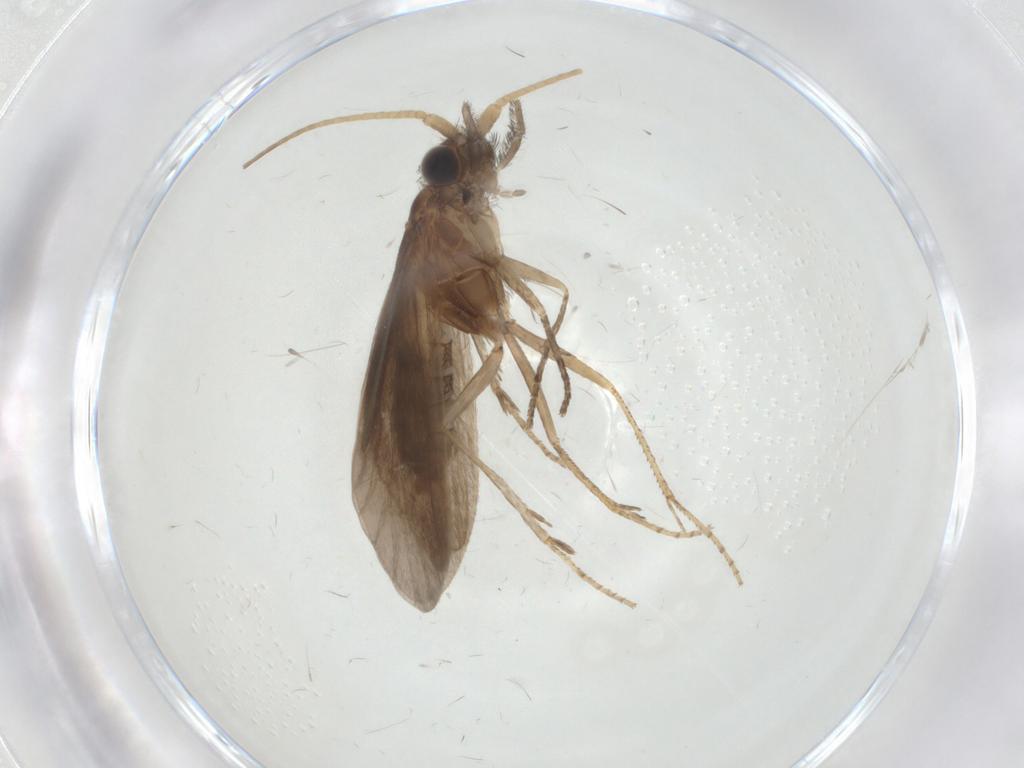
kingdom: Animalia
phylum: Arthropoda
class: Insecta
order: Trichoptera
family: Helicopsychidae
